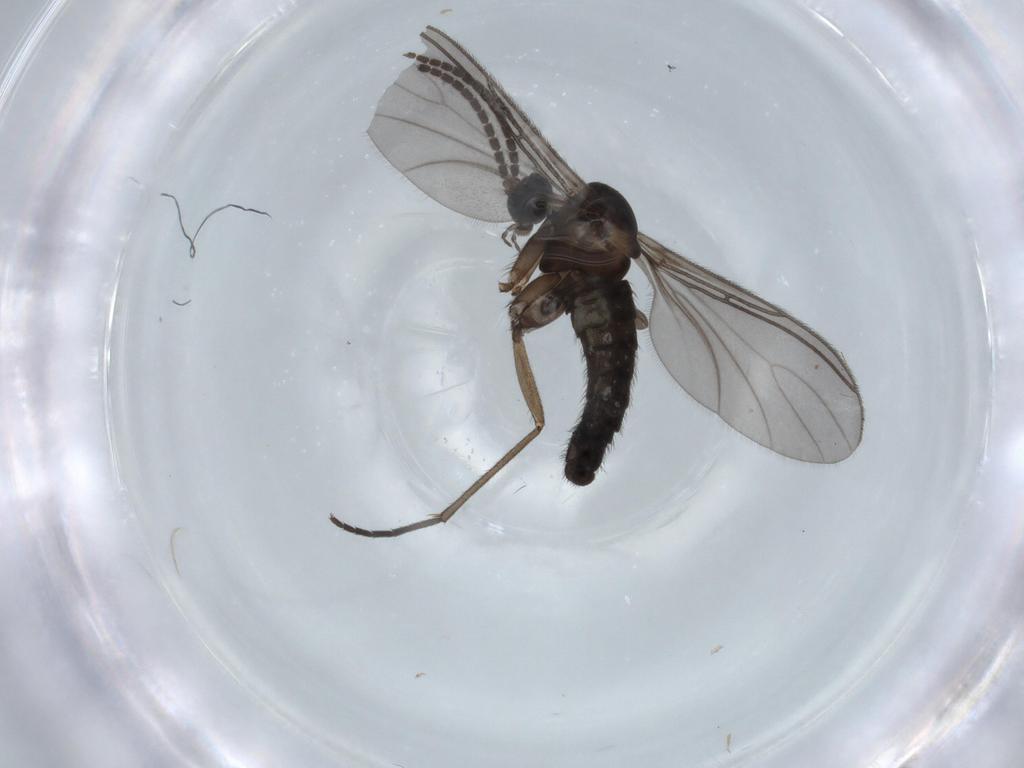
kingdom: Animalia
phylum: Arthropoda
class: Insecta
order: Diptera
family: Sciaridae
